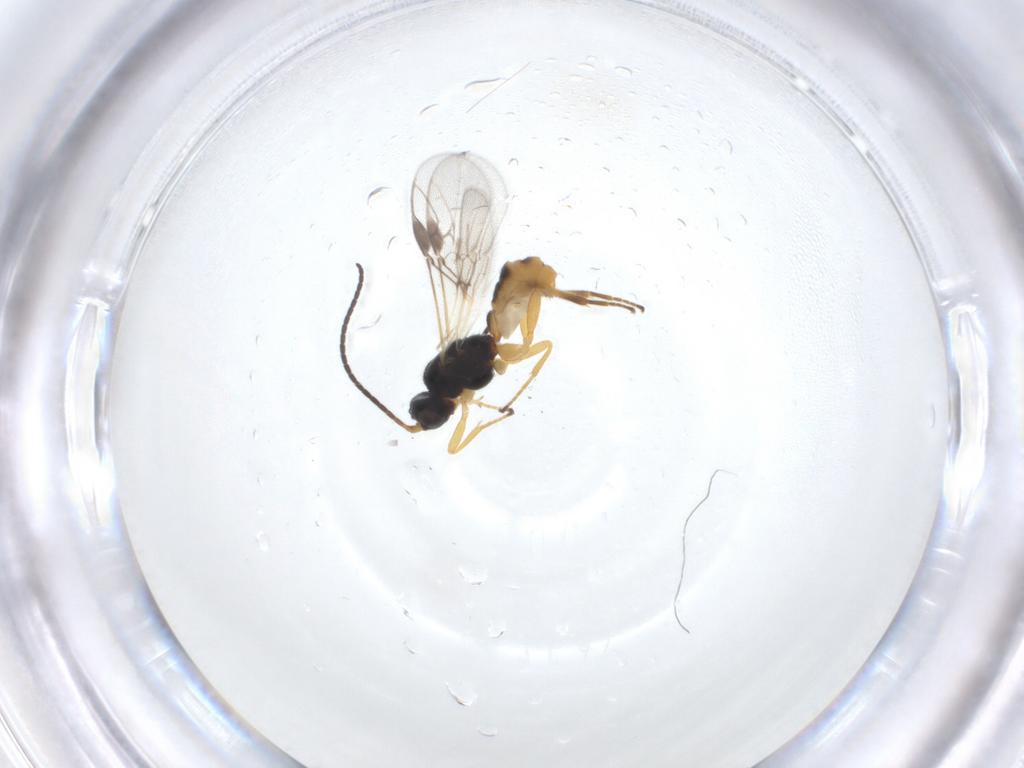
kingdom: Animalia
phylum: Arthropoda
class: Insecta
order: Hymenoptera
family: Braconidae
